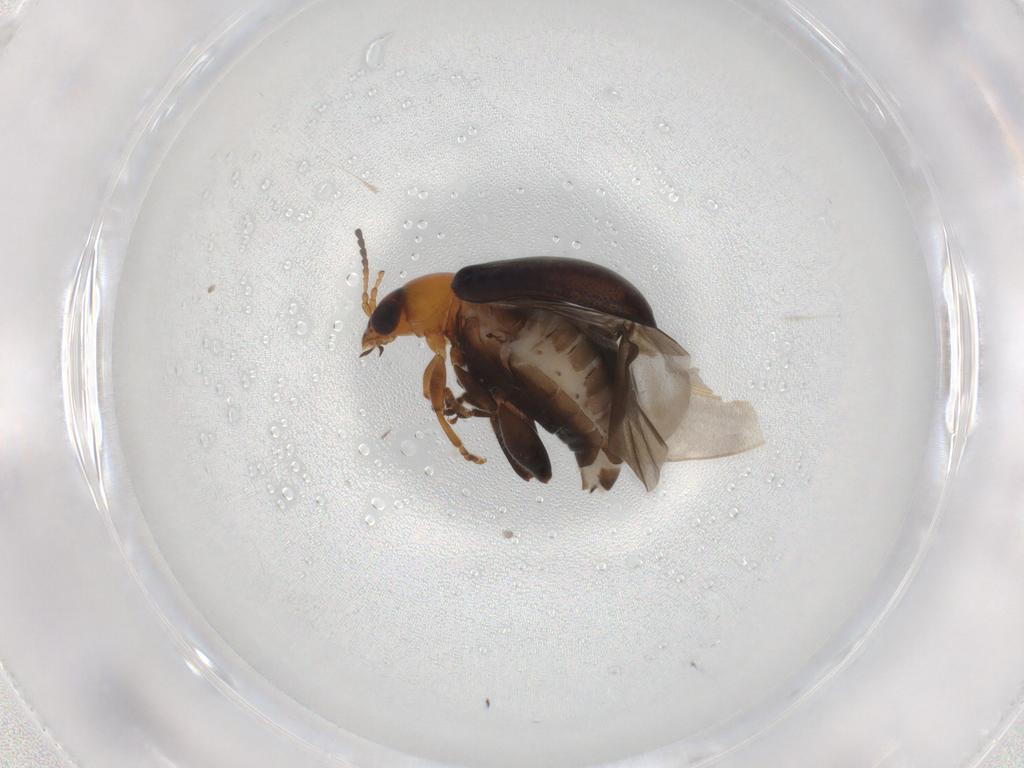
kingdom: Animalia
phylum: Arthropoda
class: Insecta
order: Coleoptera
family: Chrysomelidae
